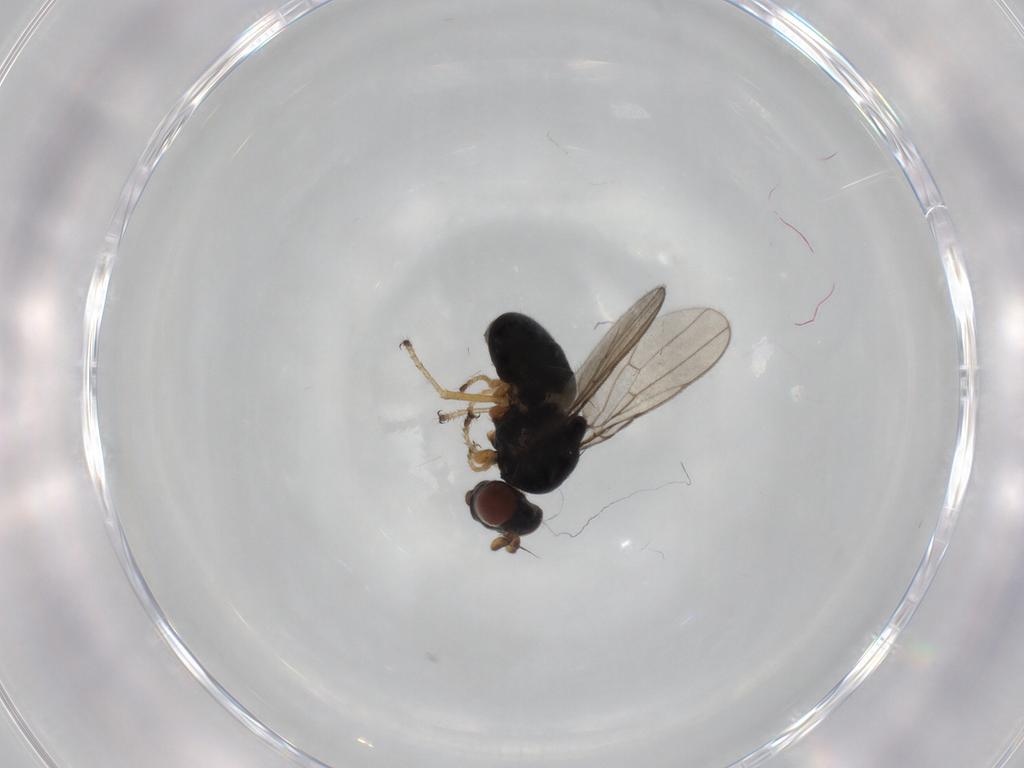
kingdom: Animalia
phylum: Arthropoda
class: Insecta
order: Diptera
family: Ephydridae
